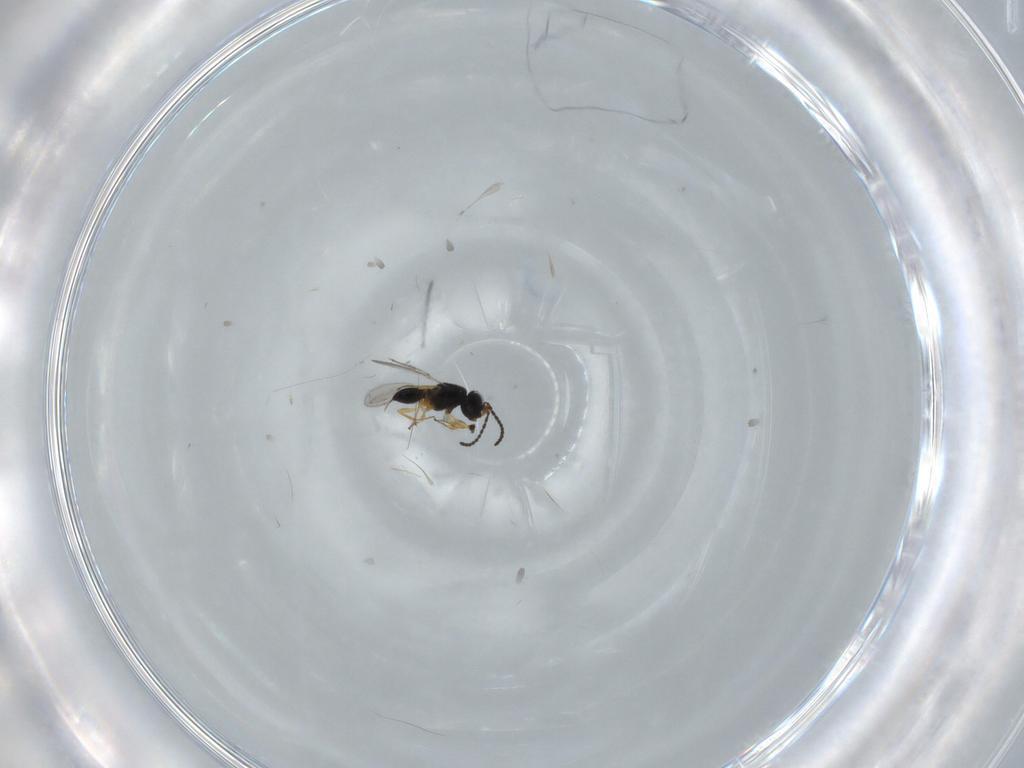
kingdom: Animalia
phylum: Arthropoda
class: Insecta
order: Hymenoptera
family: Scelionidae
